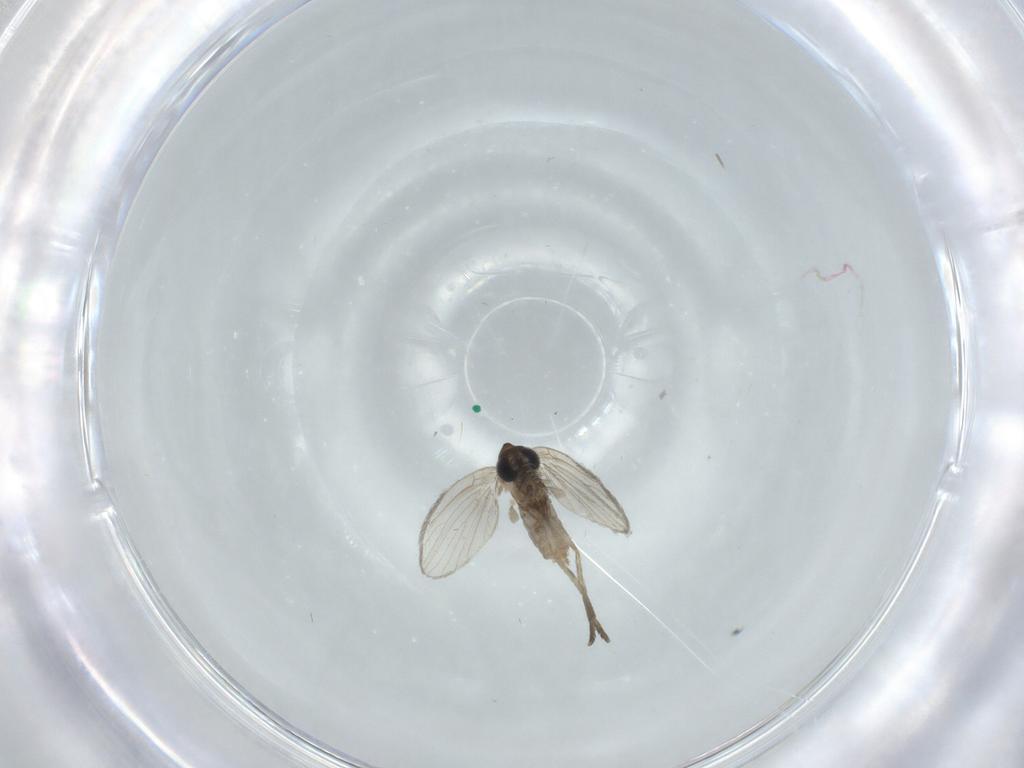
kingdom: Animalia
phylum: Arthropoda
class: Insecta
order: Diptera
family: Psychodidae
